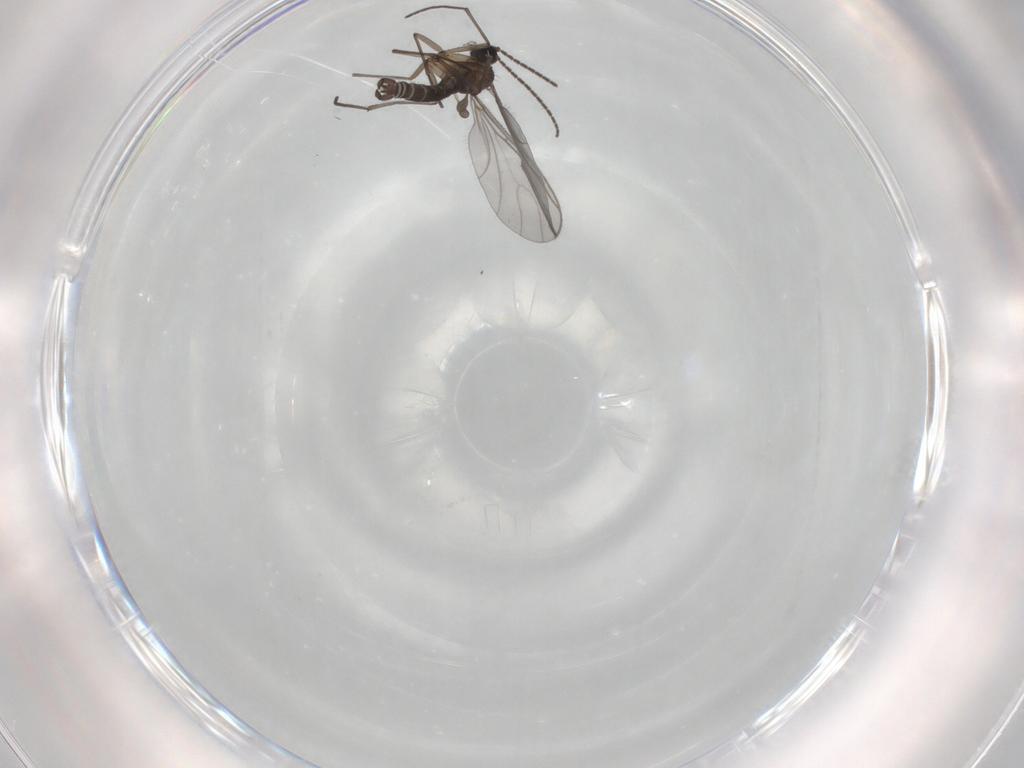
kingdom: Animalia
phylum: Arthropoda
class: Insecta
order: Diptera
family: Sciaridae
